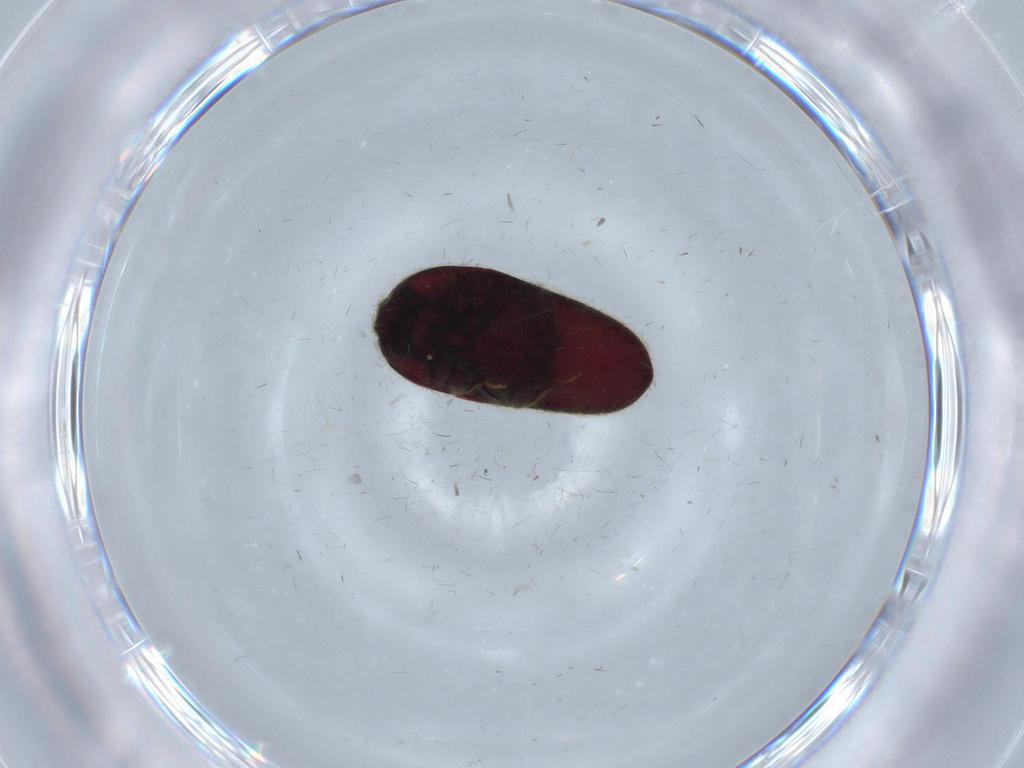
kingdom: Animalia
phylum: Arthropoda
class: Insecta
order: Coleoptera
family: Throscidae
